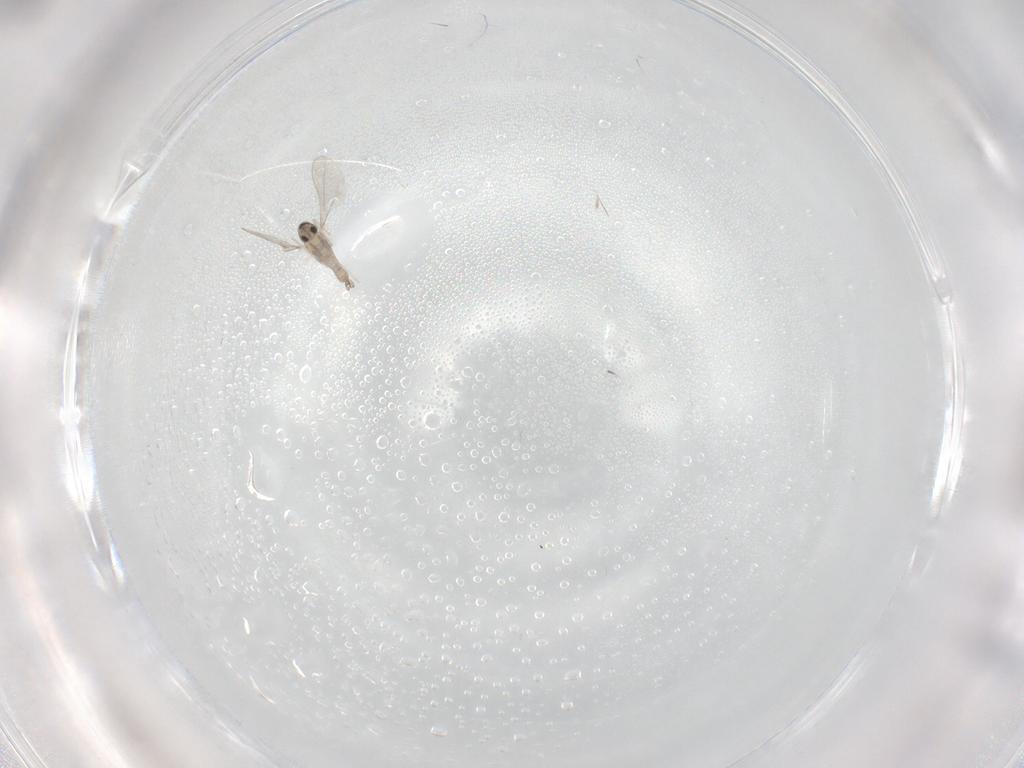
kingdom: Animalia
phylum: Arthropoda
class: Insecta
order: Diptera
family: Cecidomyiidae
